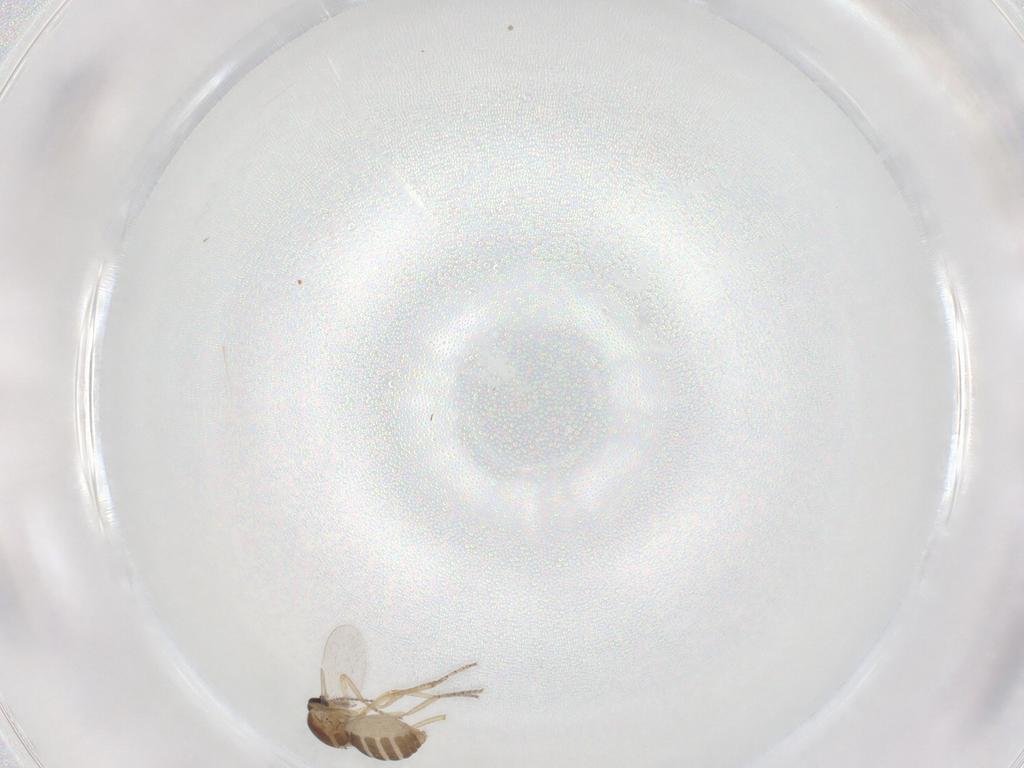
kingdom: Animalia
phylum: Arthropoda
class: Insecta
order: Diptera
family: Ceratopogonidae
